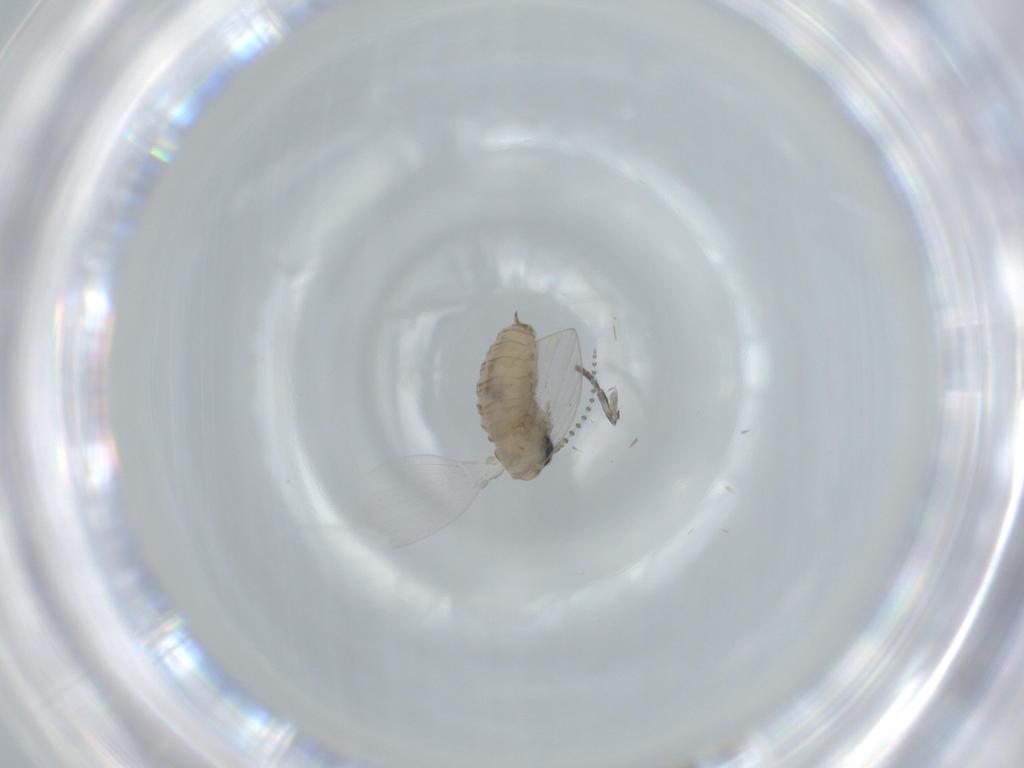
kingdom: Animalia
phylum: Arthropoda
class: Insecta
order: Diptera
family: Psychodidae
